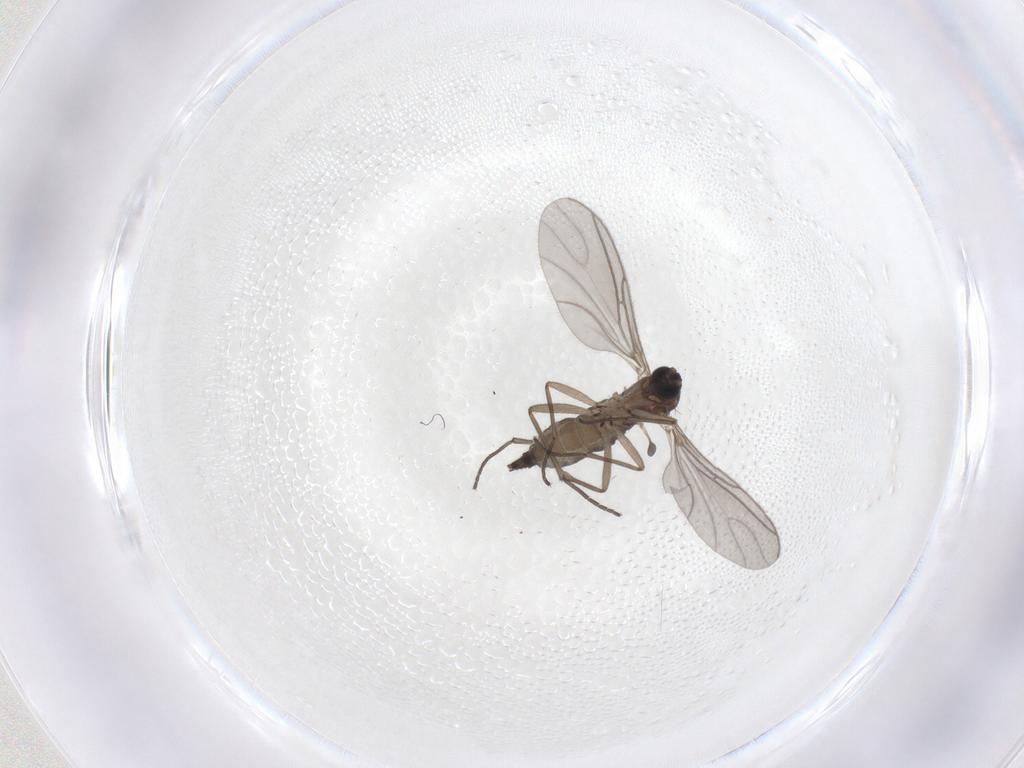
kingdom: Animalia
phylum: Arthropoda
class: Insecta
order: Diptera
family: Sciaridae
